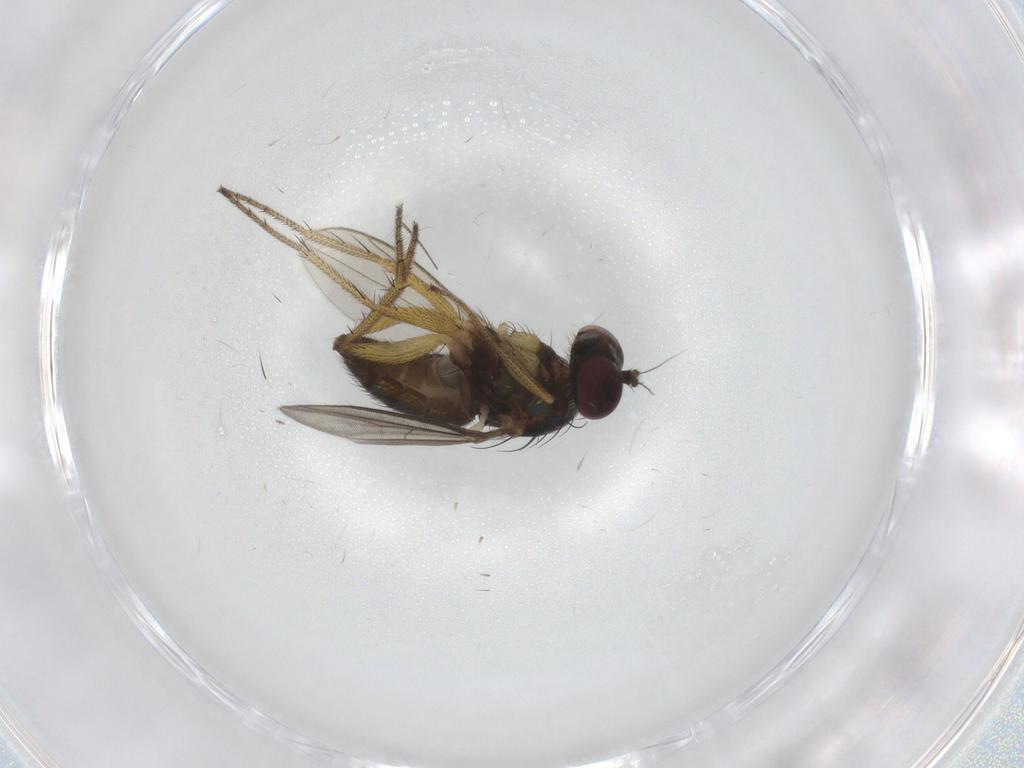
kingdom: Animalia
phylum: Arthropoda
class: Insecta
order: Diptera
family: Chironomidae
